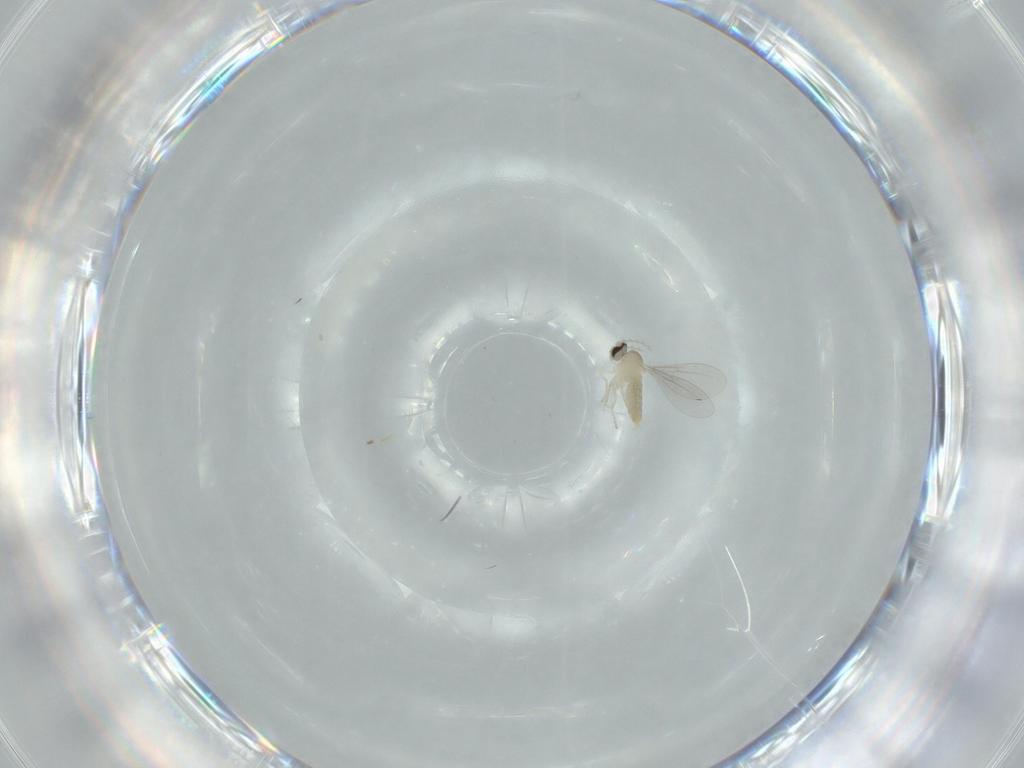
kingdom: Animalia
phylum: Arthropoda
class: Insecta
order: Diptera
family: Cecidomyiidae
